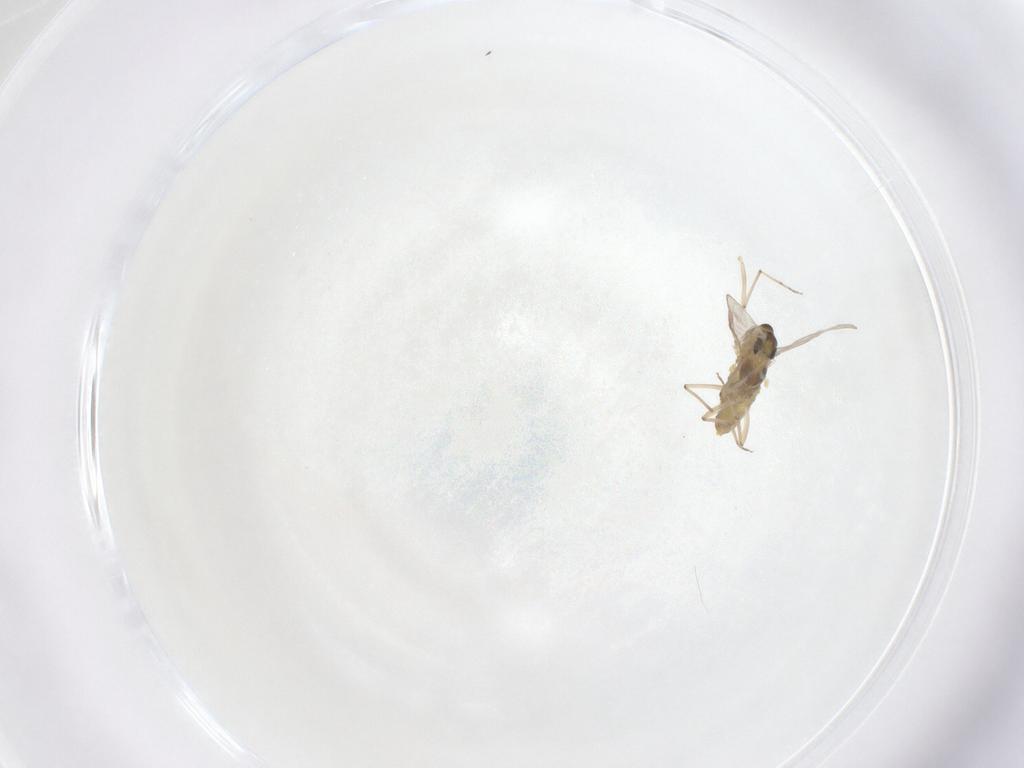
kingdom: Animalia
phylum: Arthropoda
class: Insecta
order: Diptera
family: Chironomidae
